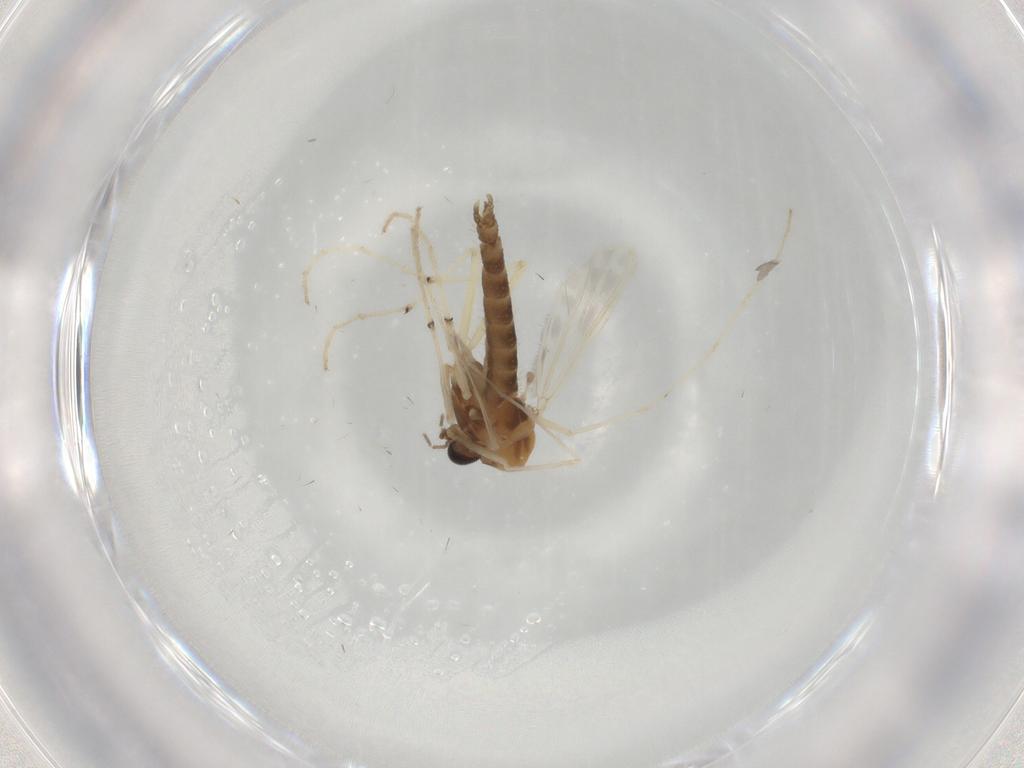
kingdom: Animalia
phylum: Arthropoda
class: Insecta
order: Diptera
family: Chironomidae
